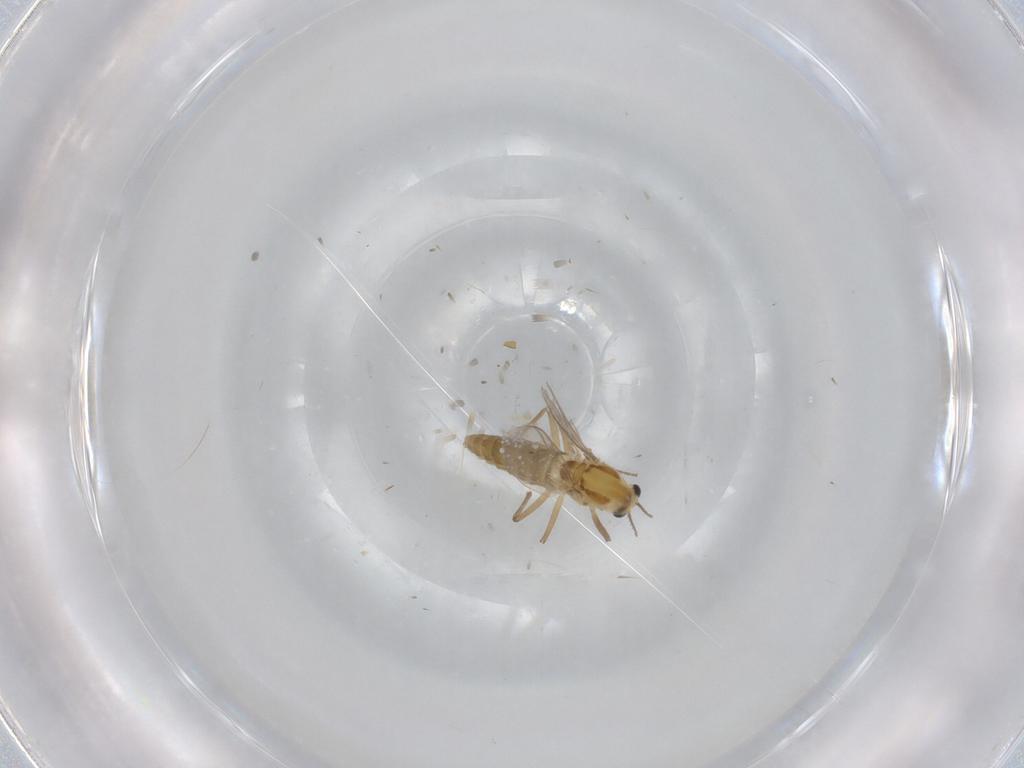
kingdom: Animalia
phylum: Arthropoda
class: Insecta
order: Diptera
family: Chironomidae
